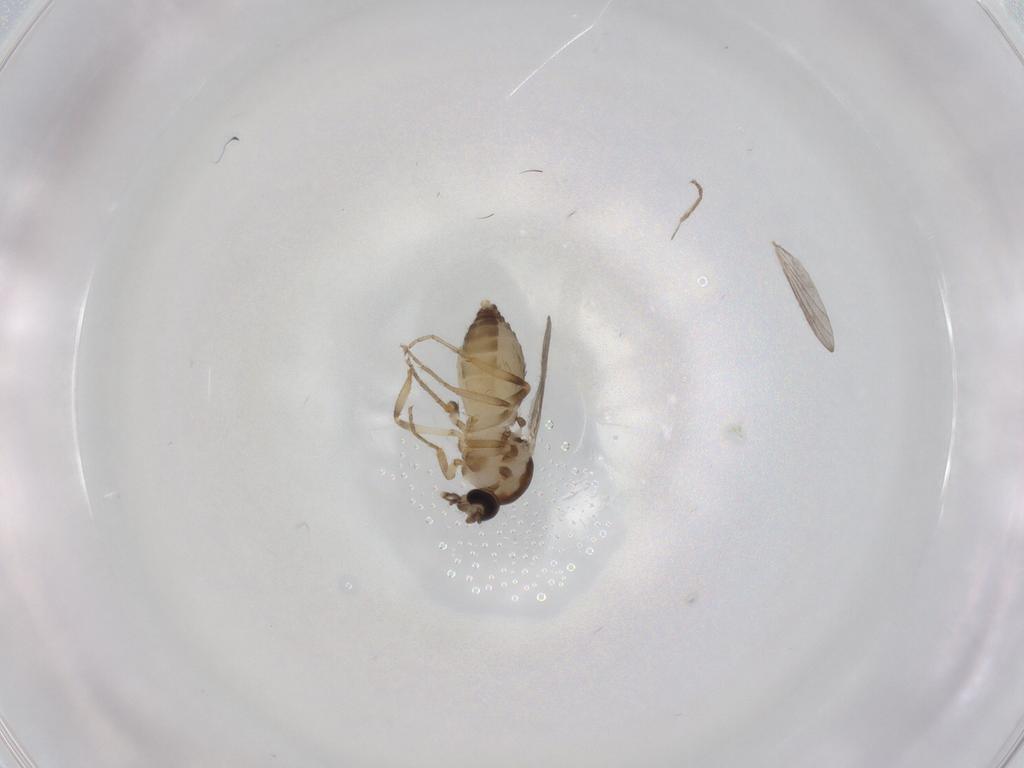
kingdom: Animalia
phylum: Arthropoda
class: Insecta
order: Diptera
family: Ceratopogonidae
